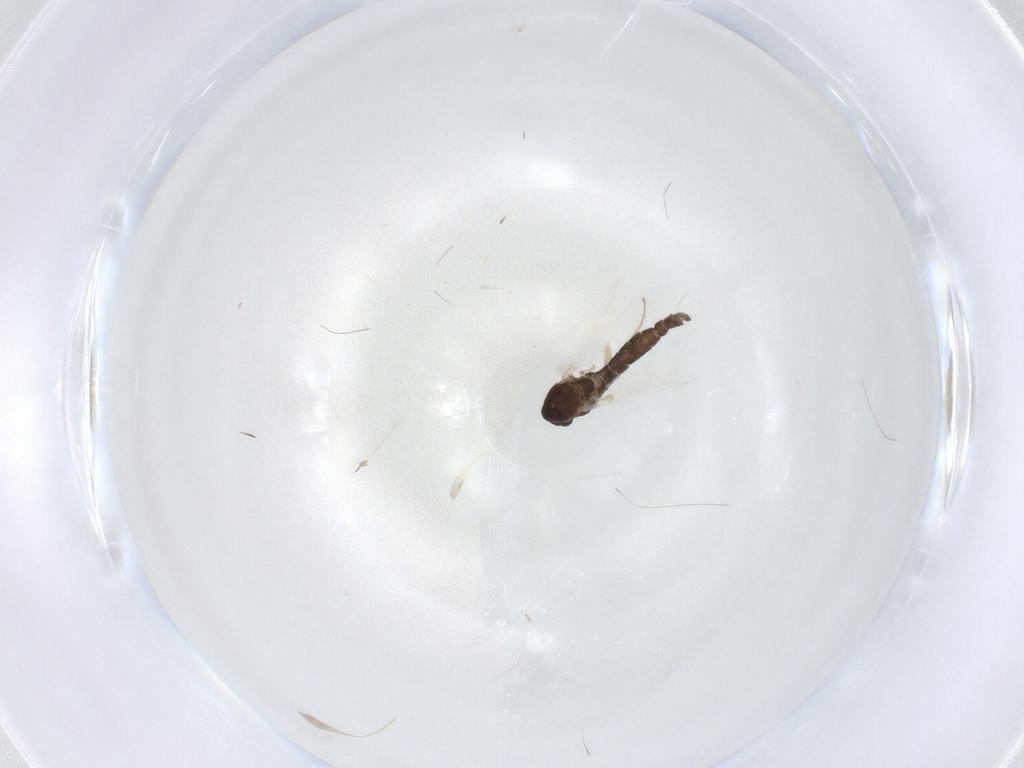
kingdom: Animalia
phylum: Arthropoda
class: Insecta
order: Diptera
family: Chironomidae
